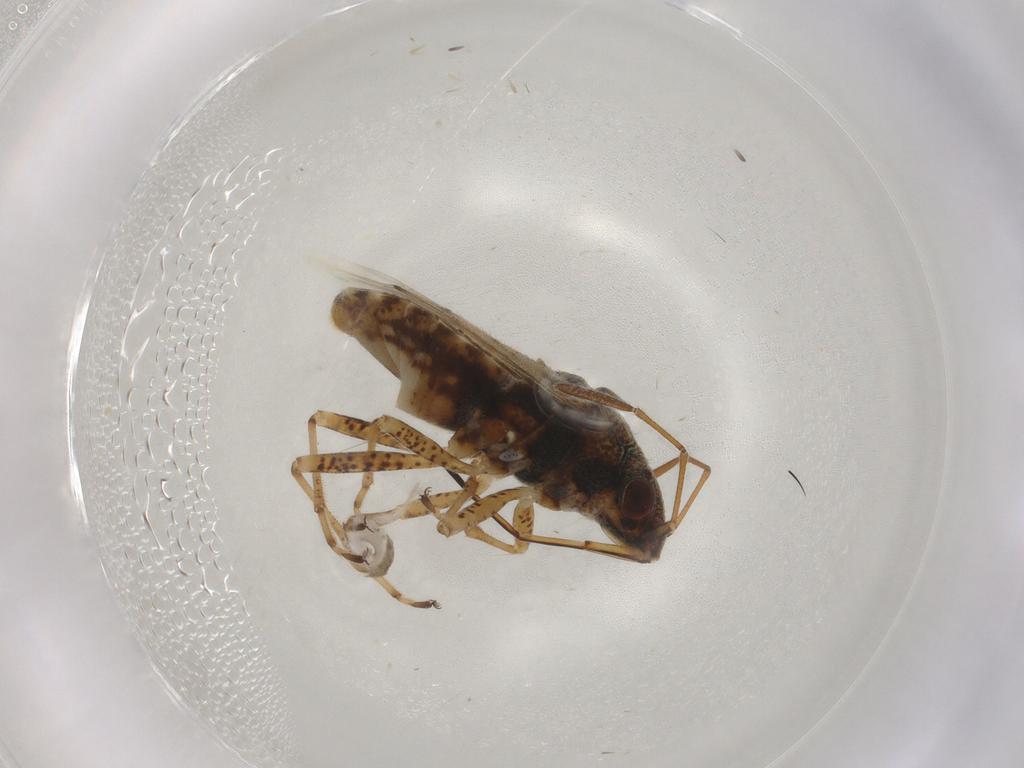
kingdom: Animalia
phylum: Arthropoda
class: Insecta
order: Hemiptera
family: Lygaeidae
